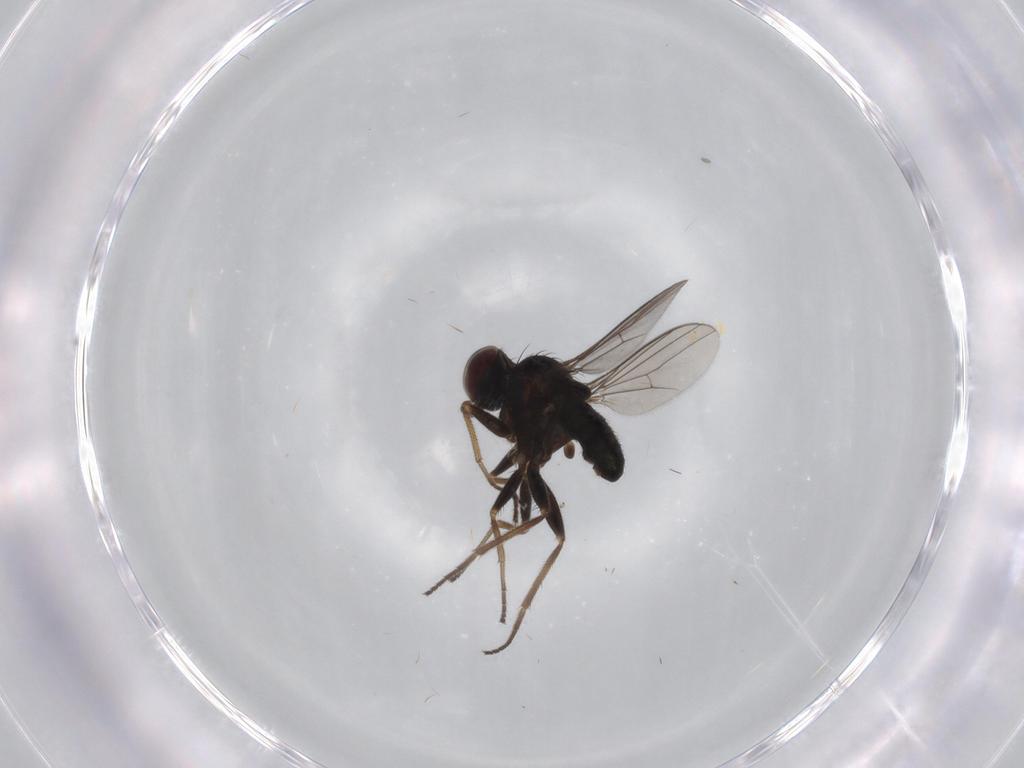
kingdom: Animalia
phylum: Arthropoda
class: Insecta
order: Diptera
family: Dolichopodidae
